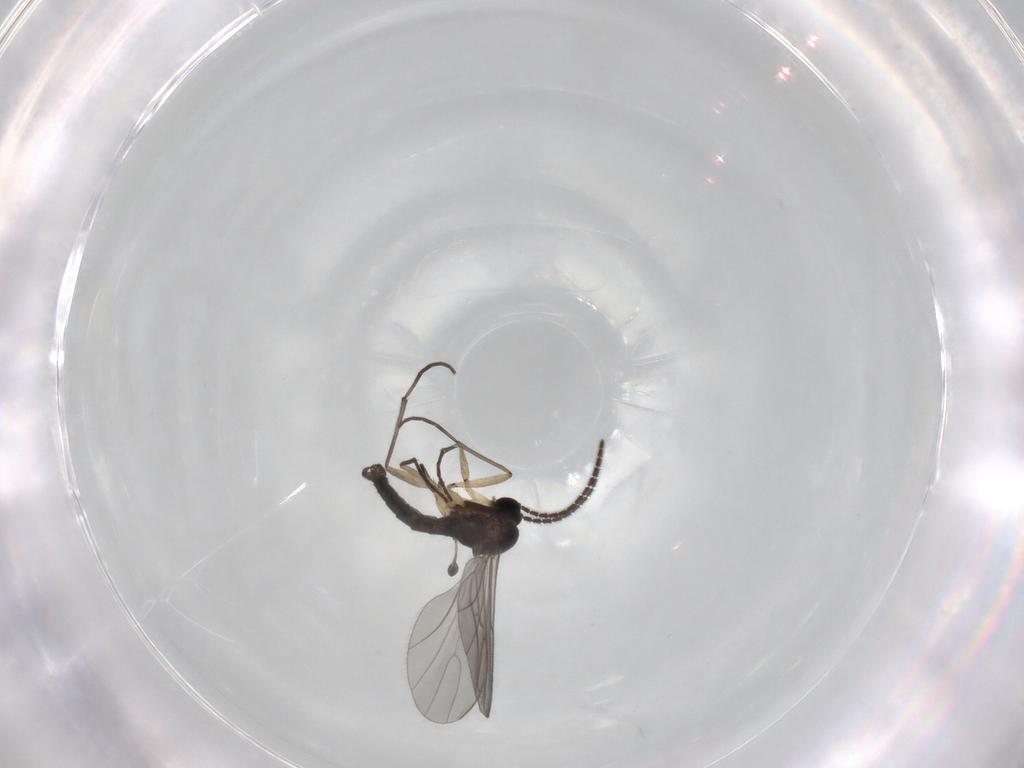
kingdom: Animalia
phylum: Arthropoda
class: Insecta
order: Diptera
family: Sciaridae
